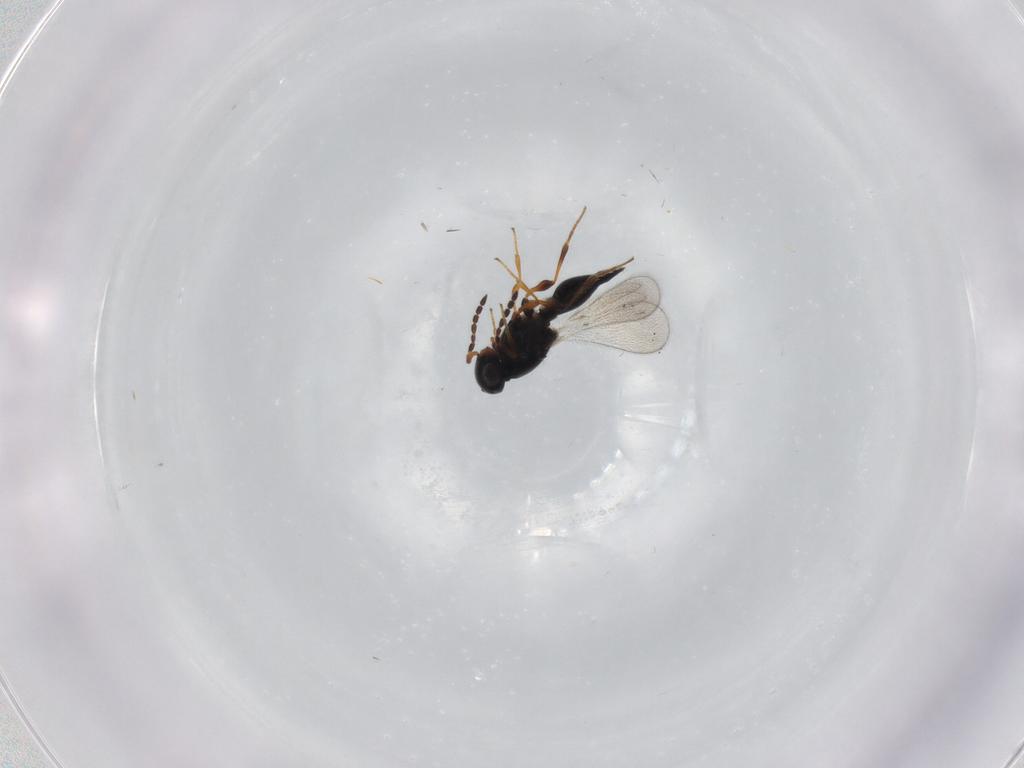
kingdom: Animalia
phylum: Arthropoda
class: Insecta
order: Hymenoptera
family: Platygastridae
